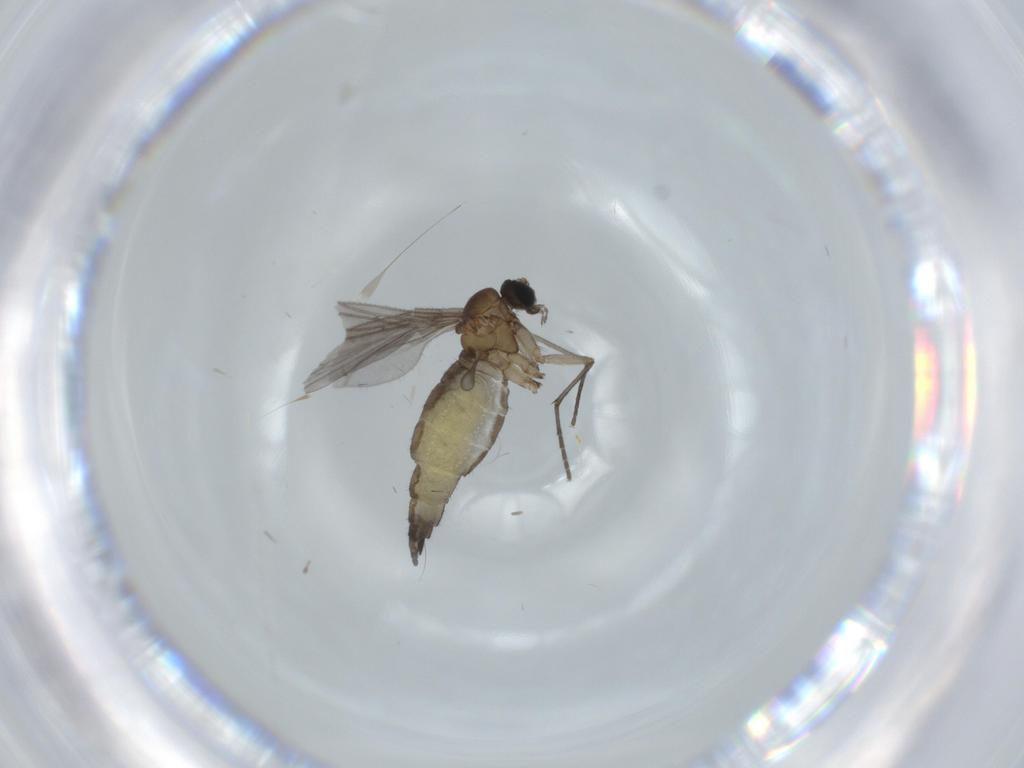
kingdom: Animalia
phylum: Arthropoda
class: Insecta
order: Diptera
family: Sciaridae
